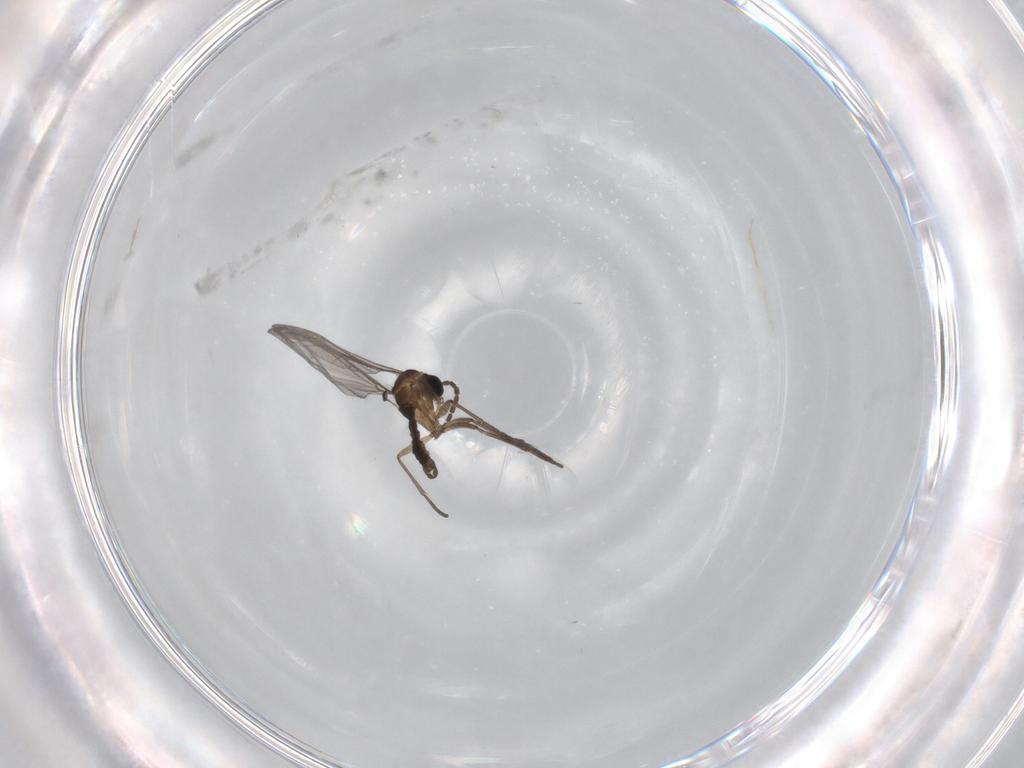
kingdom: Animalia
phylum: Arthropoda
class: Insecta
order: Diptera
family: Sciaridae
